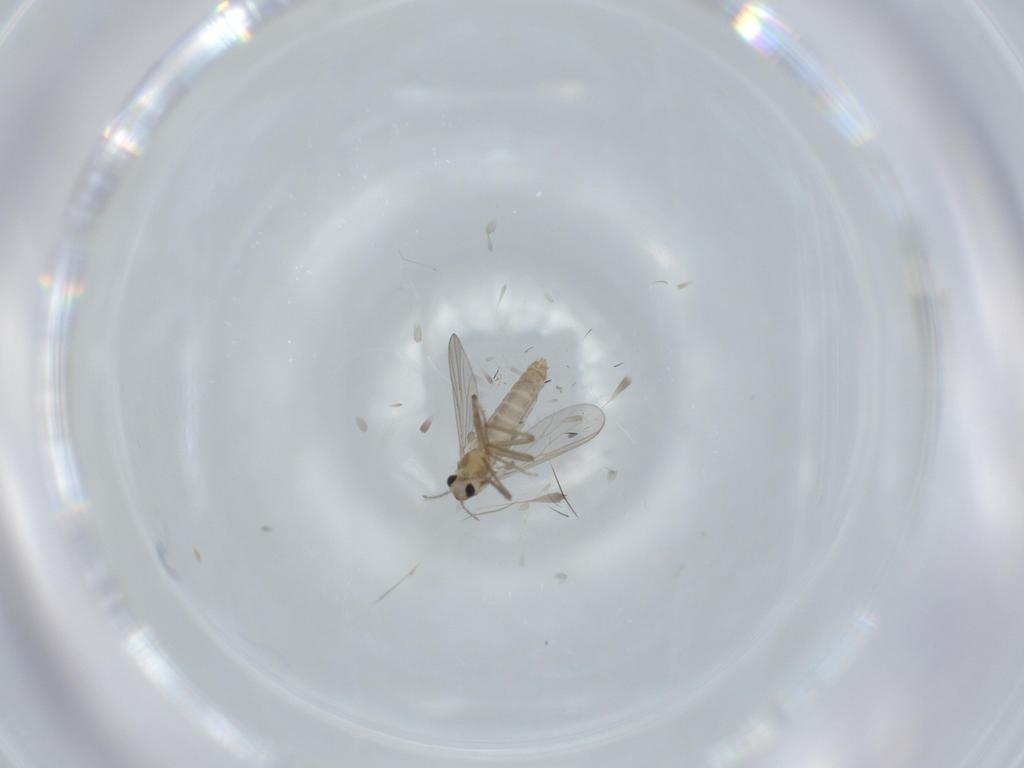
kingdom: Animalia
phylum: Arthropoda
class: Insecta
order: Diptera
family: Chironomidae
